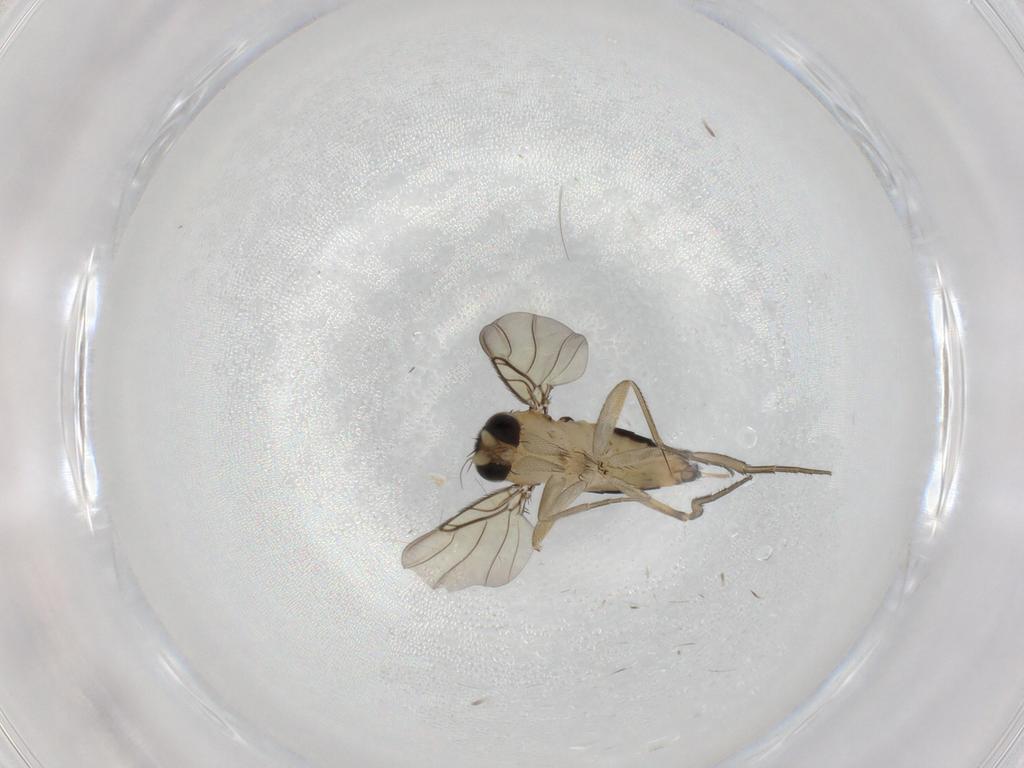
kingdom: Animalia
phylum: Arthropoda
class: Insecta
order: Diptera
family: Phoridae
